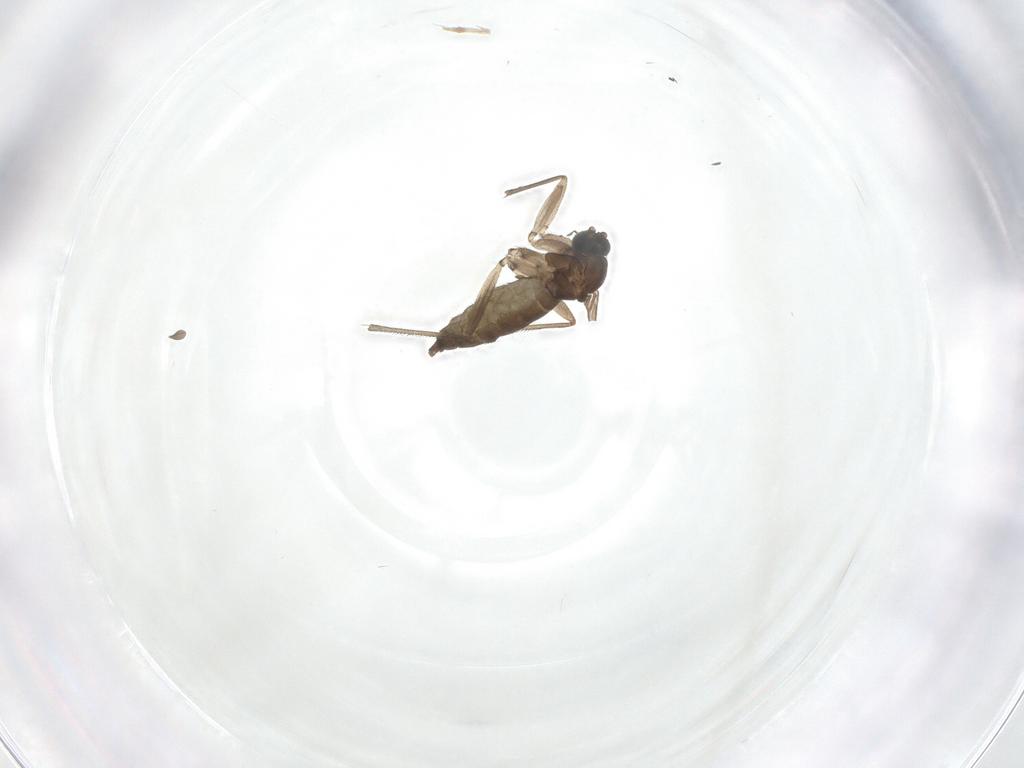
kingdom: Animalia
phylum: Arthropoda
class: Insecta
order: Diptera
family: Sciaridae
